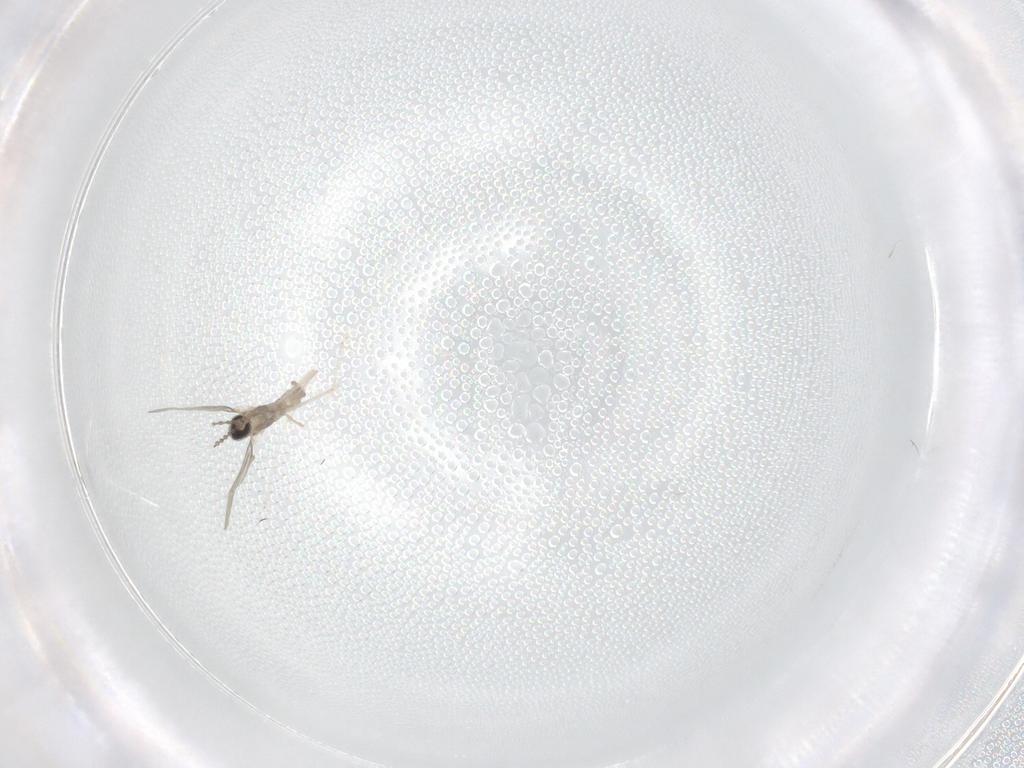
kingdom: Animalia
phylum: Arthropoda
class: Insecta
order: Diptera
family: Cecidomyiidae
